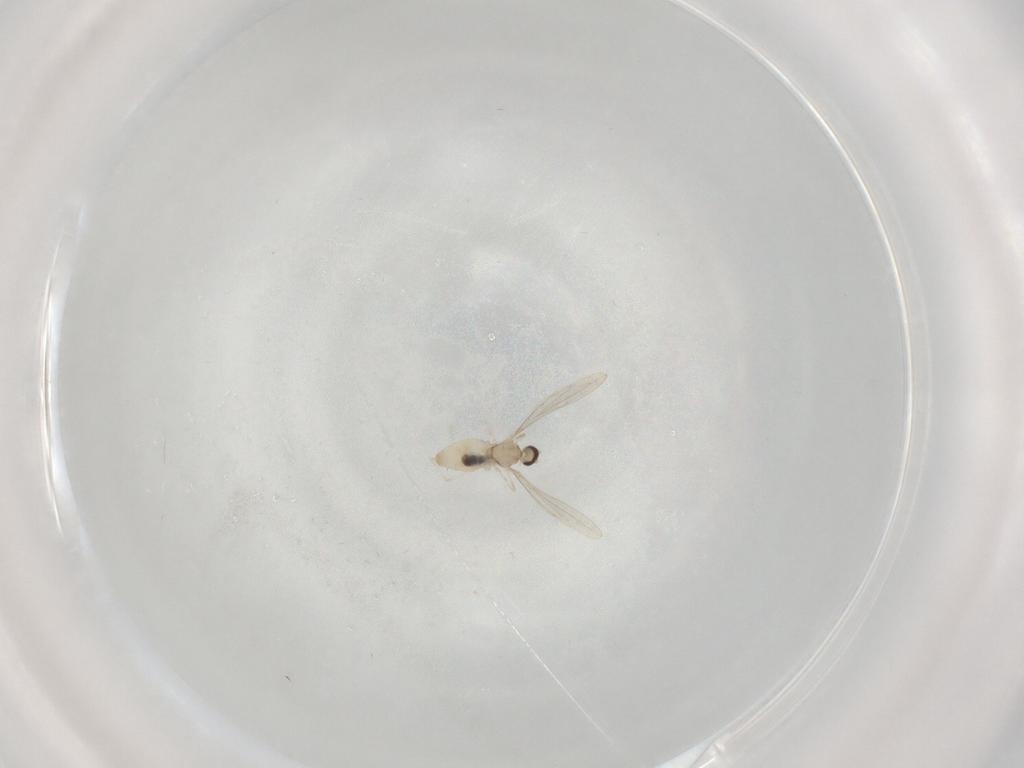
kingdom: Animalia
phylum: Arthropoda
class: Insecta
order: Diptera
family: Cecidomyiidae
